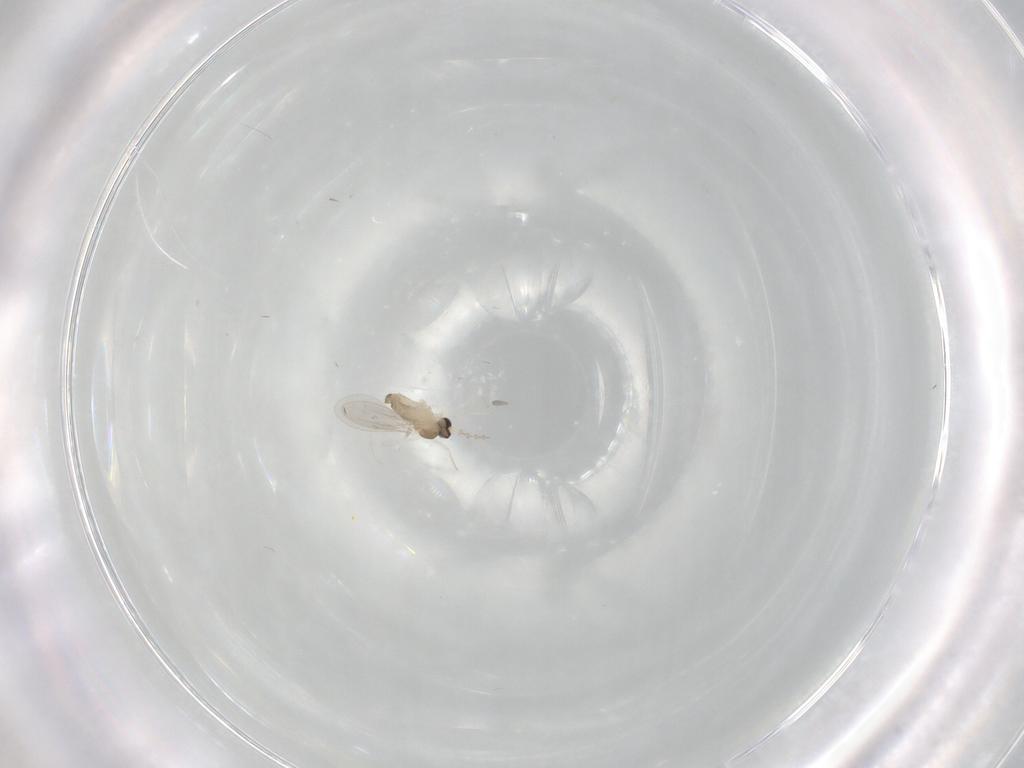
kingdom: Animalia
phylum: Arthropoda
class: Insecta
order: Diptera
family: Cecidomyiidae
